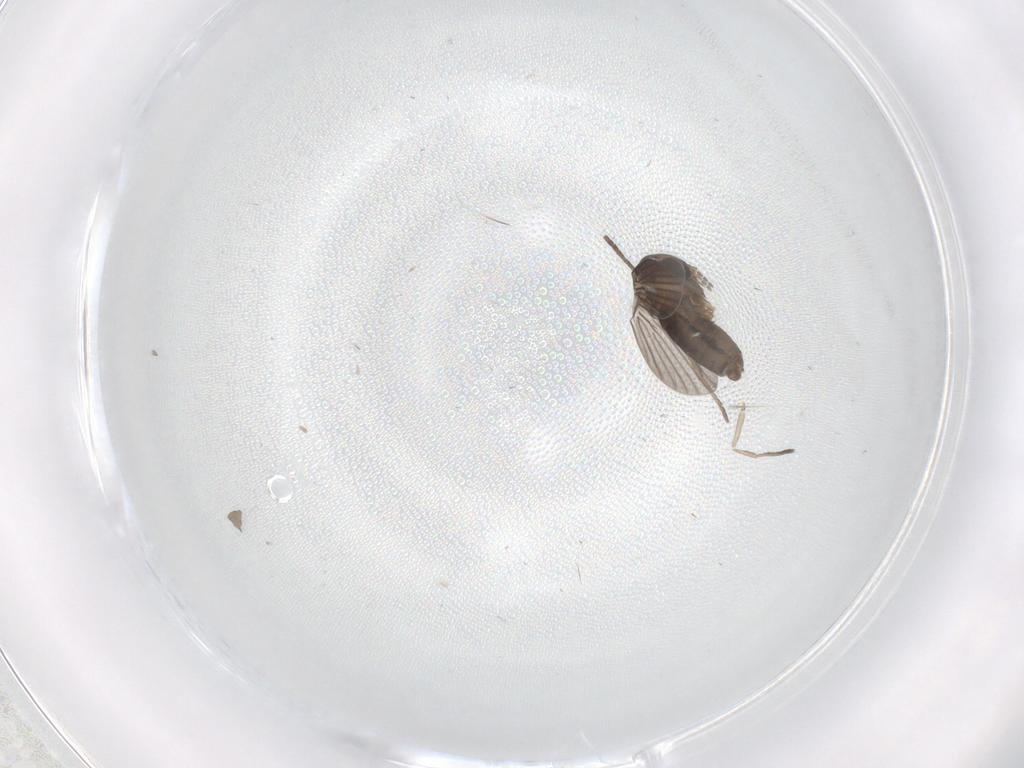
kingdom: Animalia
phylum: Arthropoda
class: Insecta
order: Diptera
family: Cecidomyiidae
